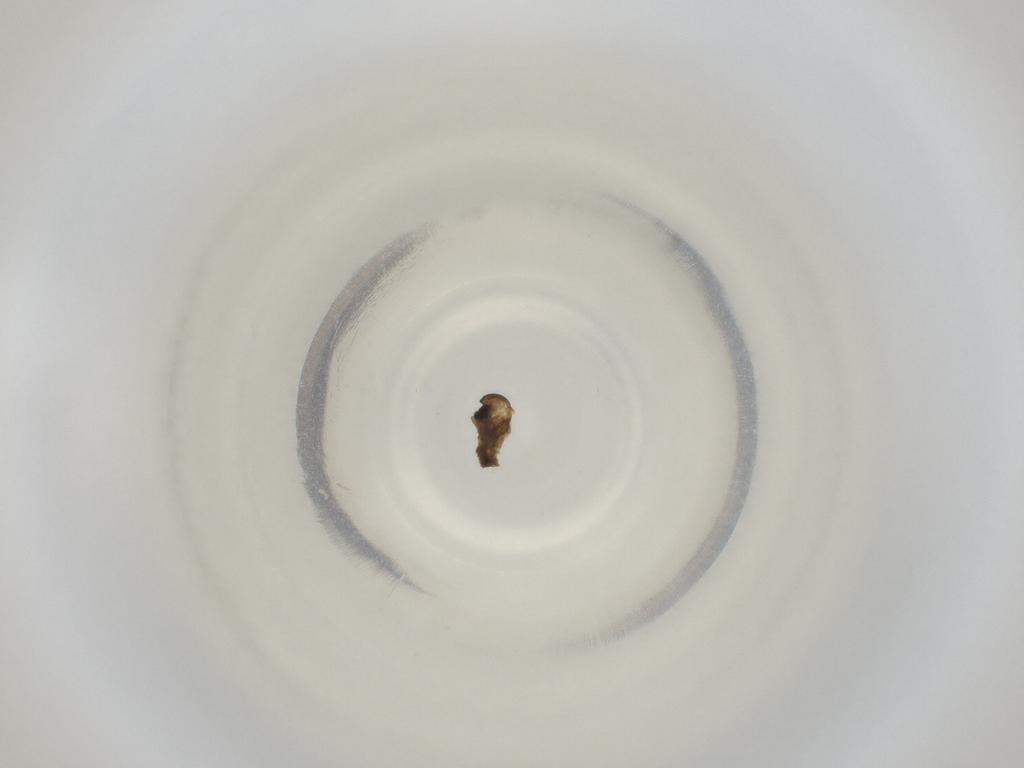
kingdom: Animalia
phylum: Arthropoda
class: Insecta
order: Diptera
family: Cecidomyiidae
